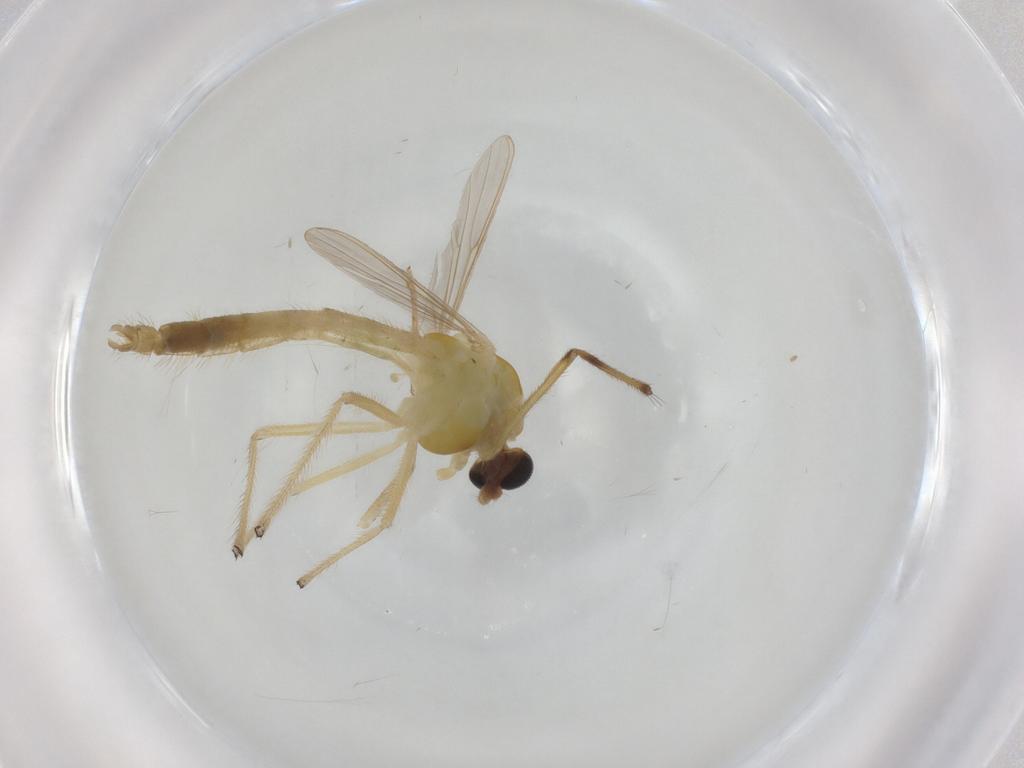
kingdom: Animalia
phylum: Arthropoda
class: Insecta
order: Diptera
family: Chironomidae
